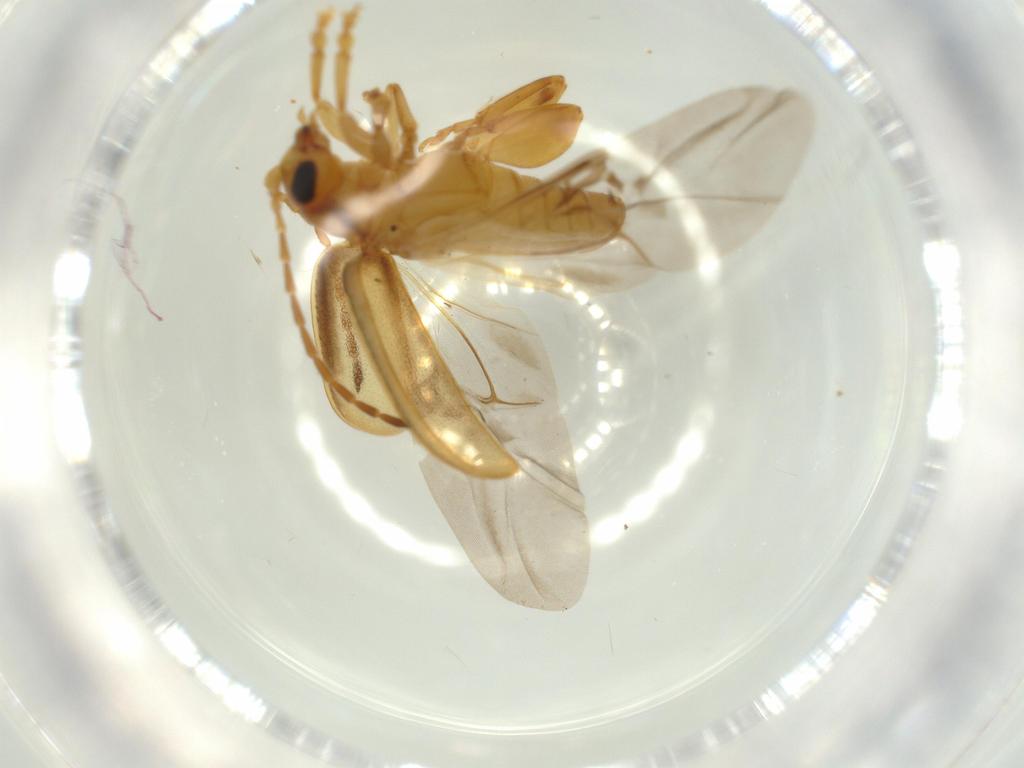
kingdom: Animalia
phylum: Arthropoda
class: Insecta
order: Coleoptera
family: Chrysomelidae
